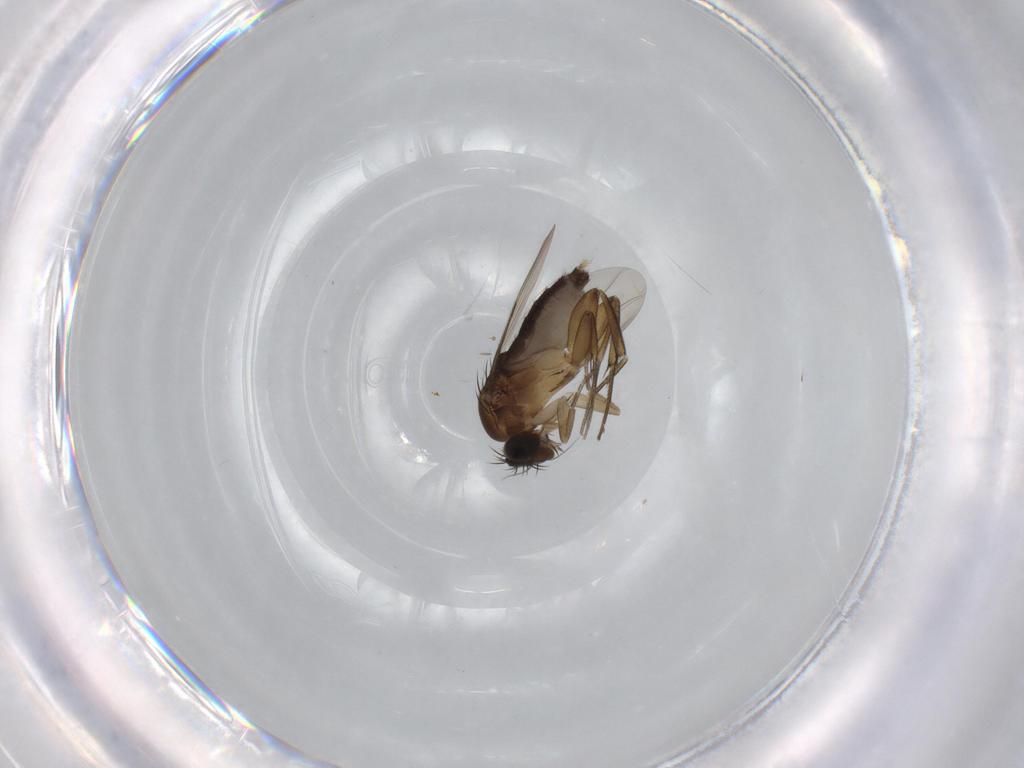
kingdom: Animalia
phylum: Arthropoda
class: Insecta
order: Diptera
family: Phoridae
